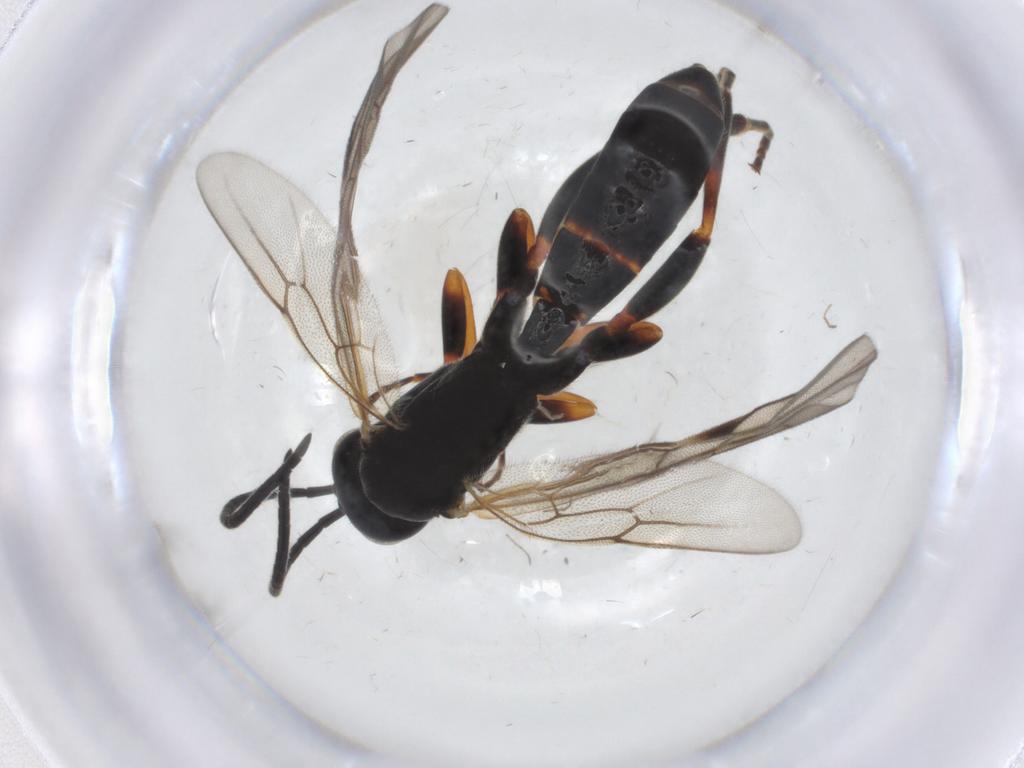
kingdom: Animalia
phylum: Arthropoda
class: Insecta
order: Hymenoptera
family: Ichneumonidae
